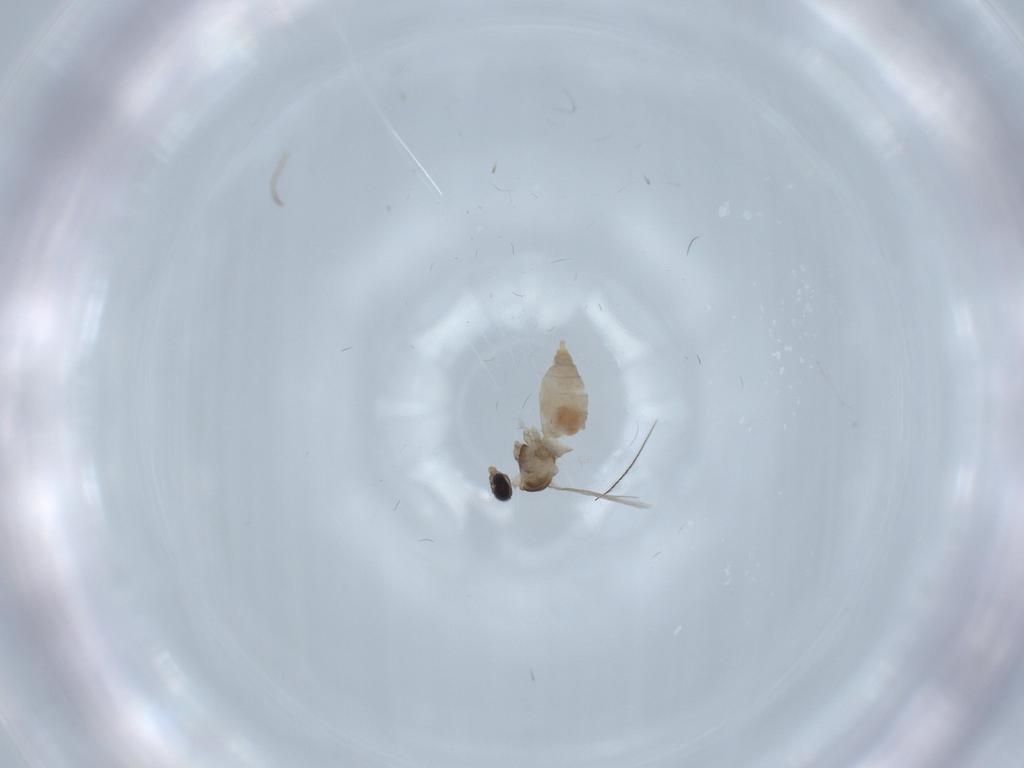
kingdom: Animalia
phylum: Arthropoda
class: Insecta
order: Diptera
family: Cecidomyiidae
